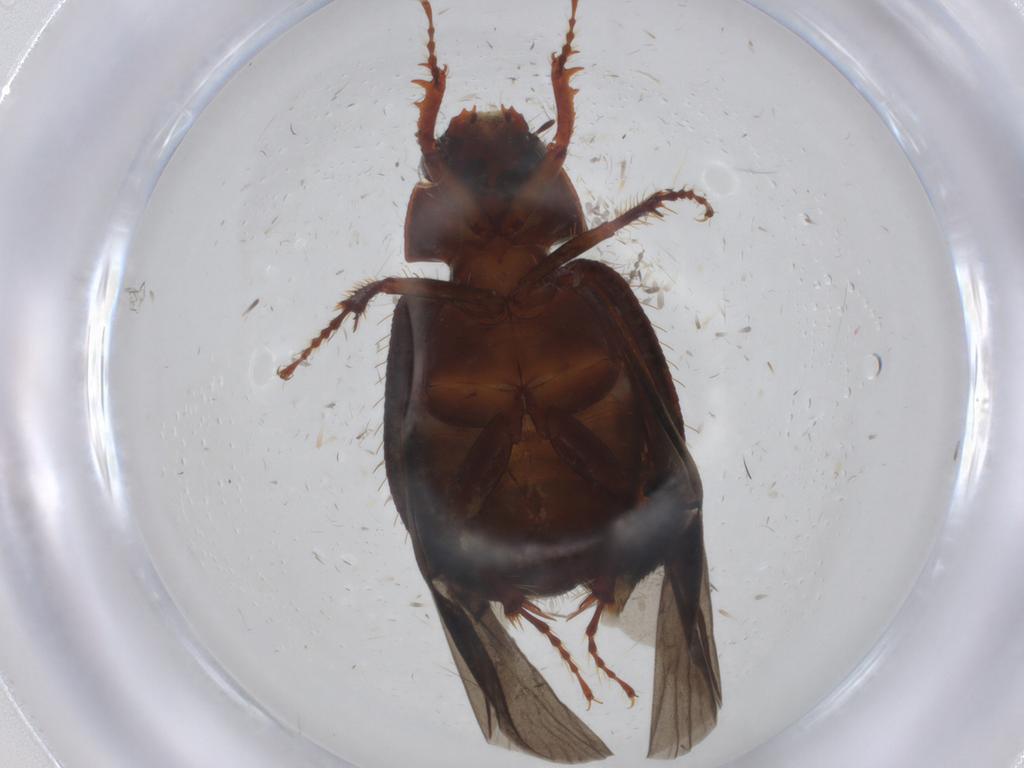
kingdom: Animalia
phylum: Arthropoda
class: Insecta
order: Coleoptera
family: Hybosoridae
